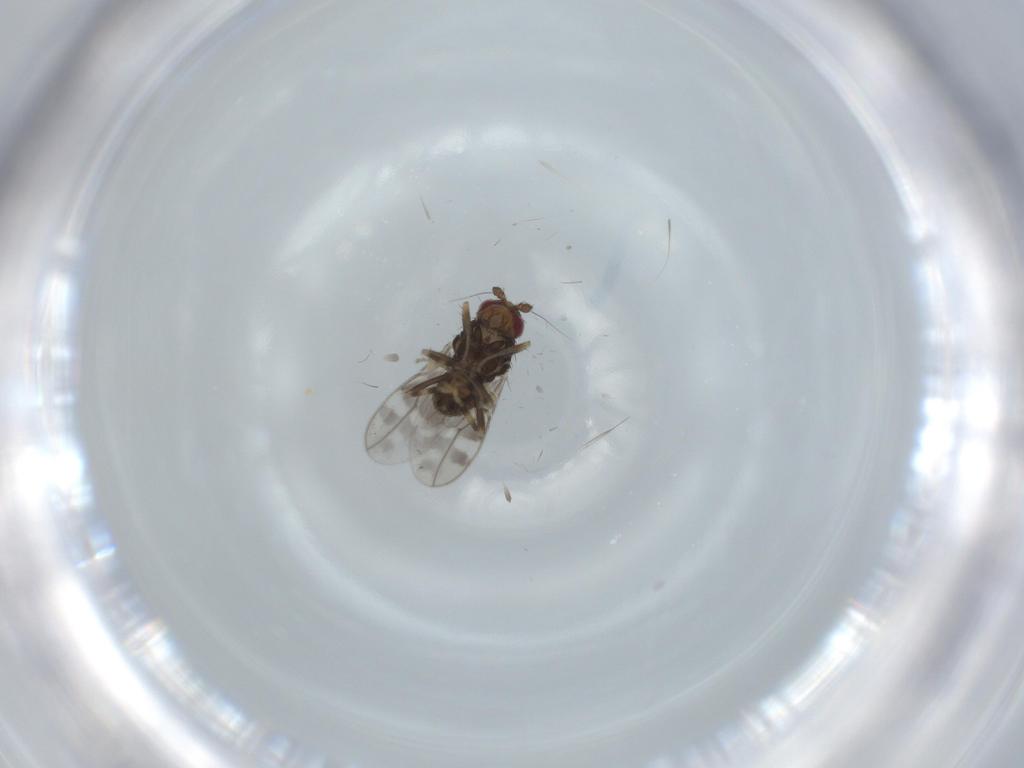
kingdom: Animalia
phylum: Arthropoda
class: Insecta
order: Diptera
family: Sphaeroceridae
